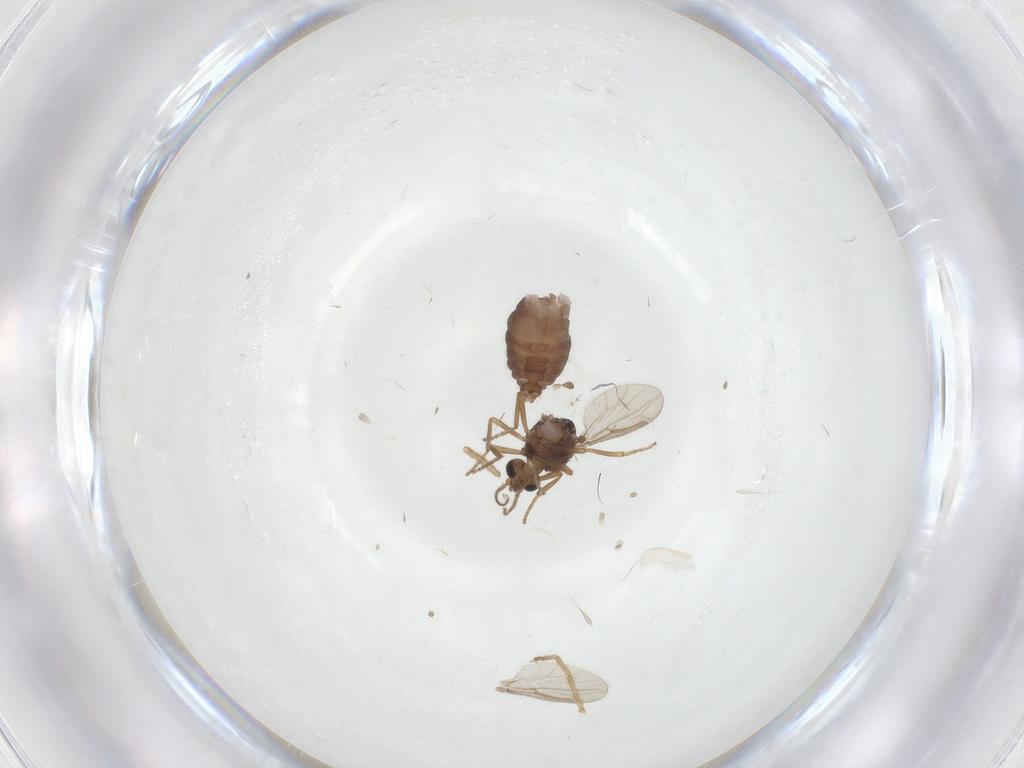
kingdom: Animalia
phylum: Arthropoda
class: Insecta
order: Diptera
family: Ceratopogonidae
